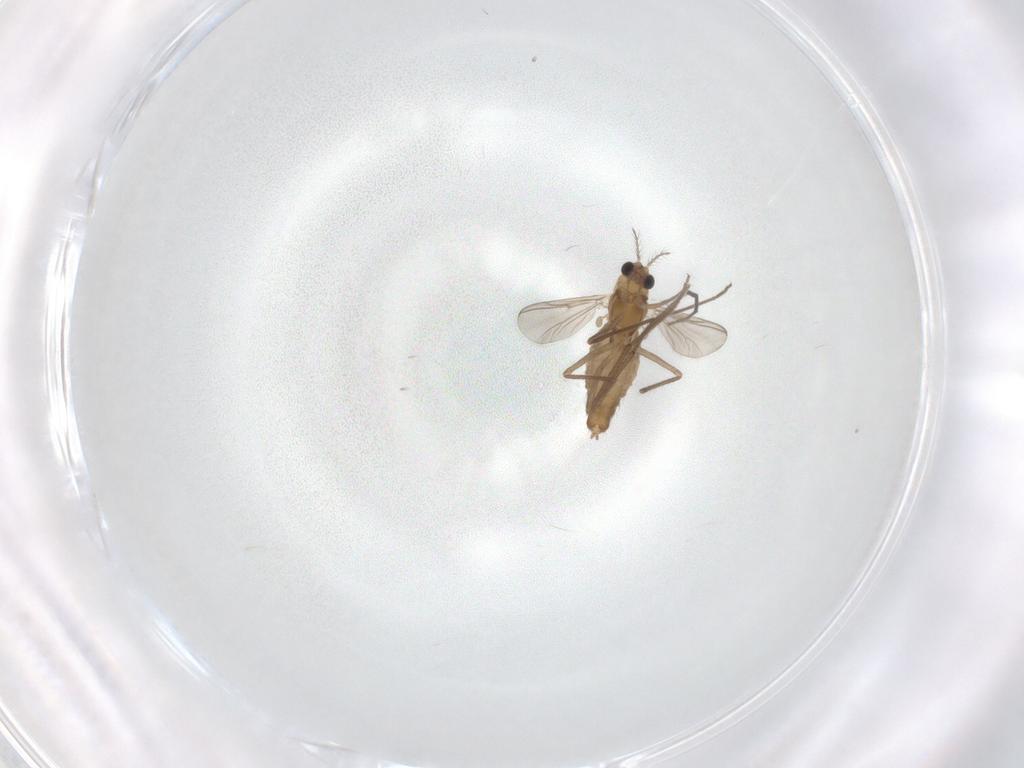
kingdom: Animalia
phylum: Arthropoda
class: Insecta
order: Diptera
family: Chironomidae
